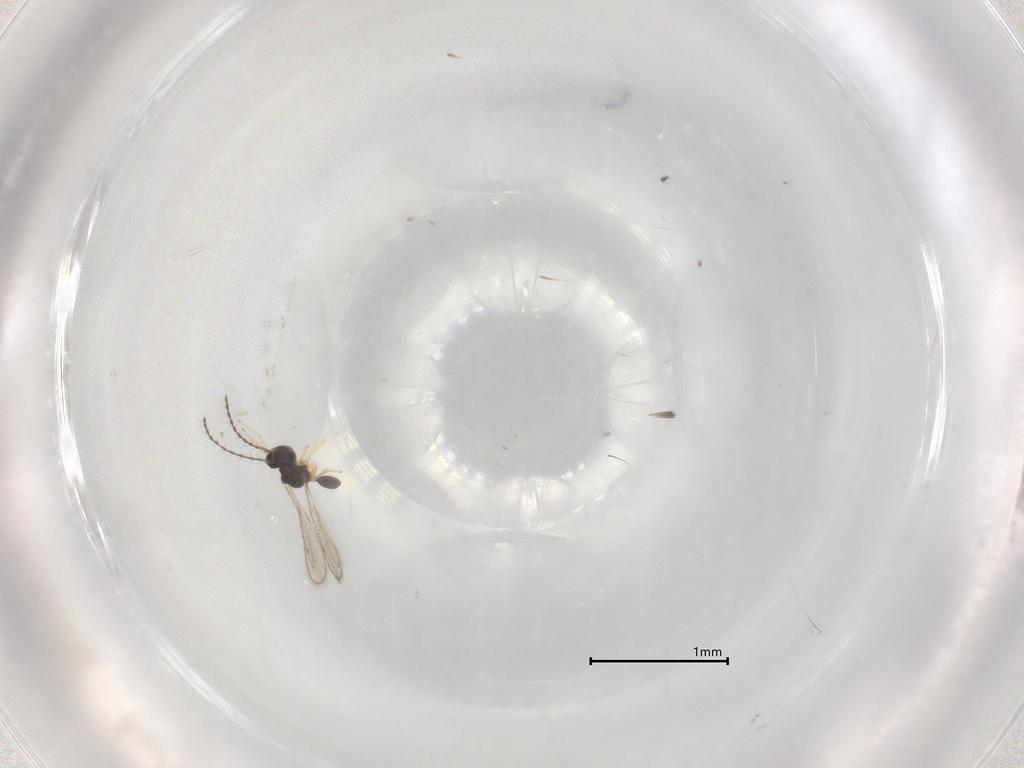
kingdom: Animalia
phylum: Arthropoda
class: Insecta
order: Hymenoptera
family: Diparidae
